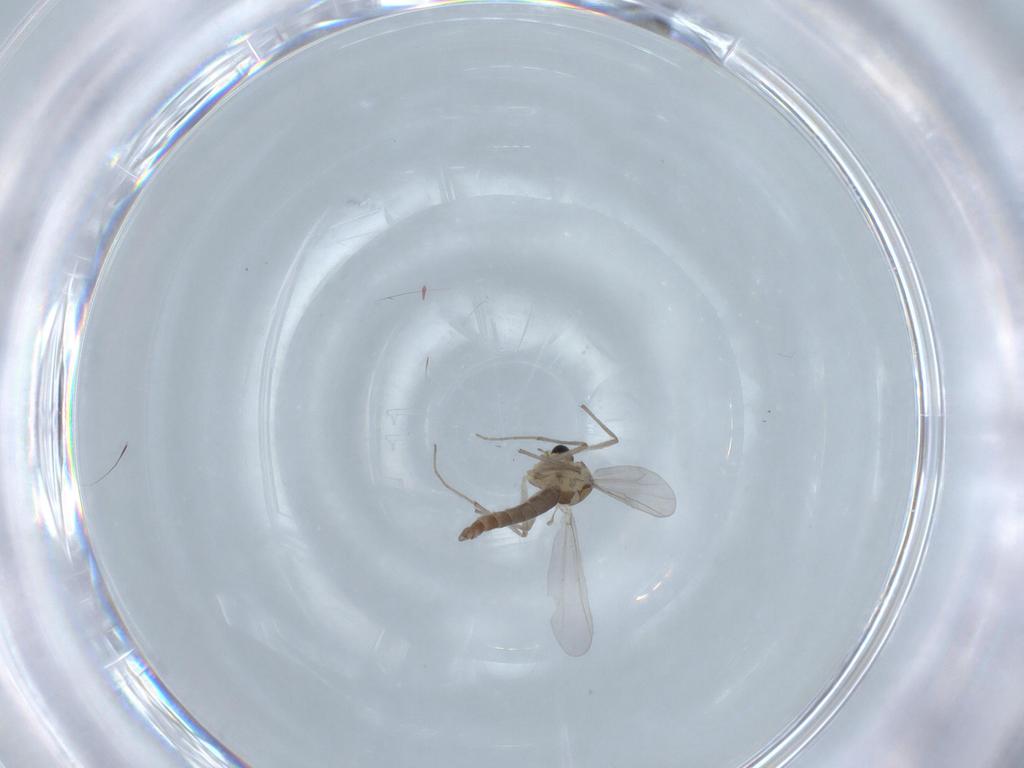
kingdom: Animalia
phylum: Arthropoda
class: Insecta
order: Diptera
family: Chironomidae
